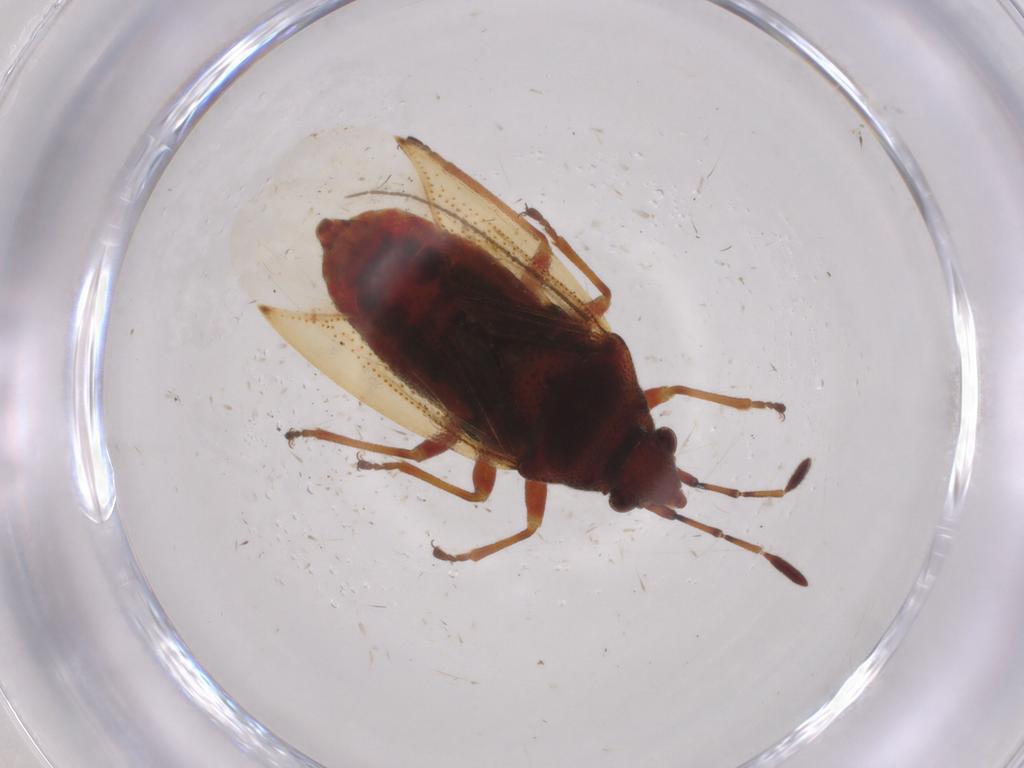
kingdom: Animalia
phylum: Arthropoda
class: Insecta
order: Hemiptera
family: Lygaeidae
